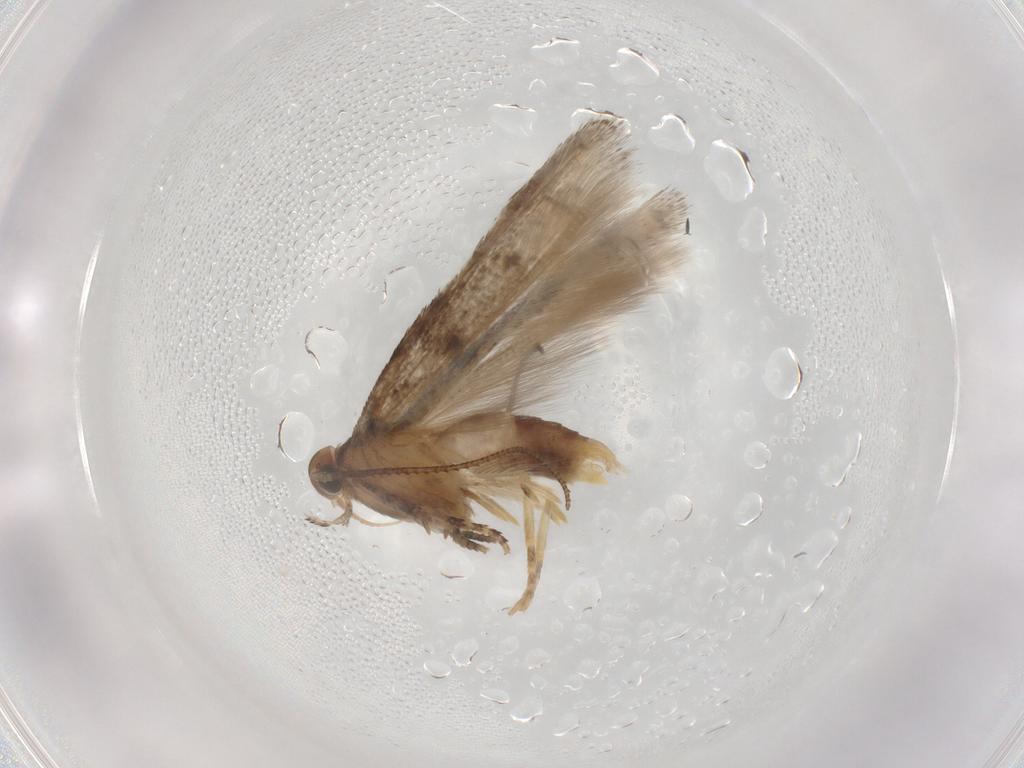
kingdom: Animalia
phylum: Arthropoda
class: Insecta
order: Lepidoptera
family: Gelechiidae
